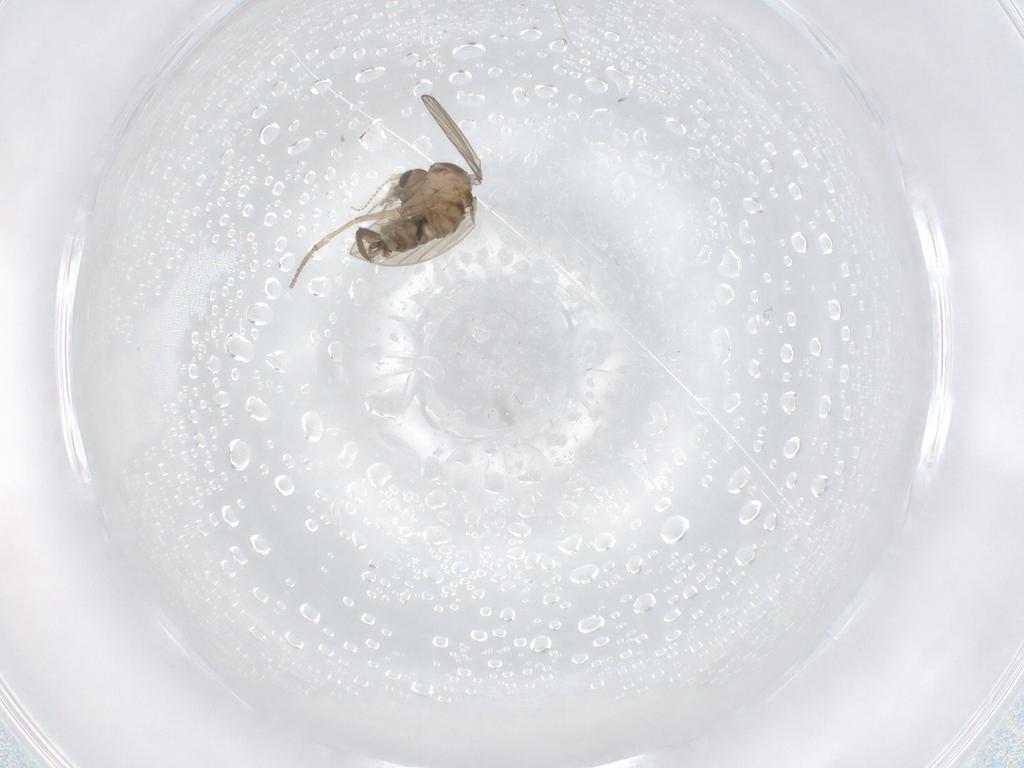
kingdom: Animalia
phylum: Arthropoda
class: Insecta
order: Diptera
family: Psychodidae
